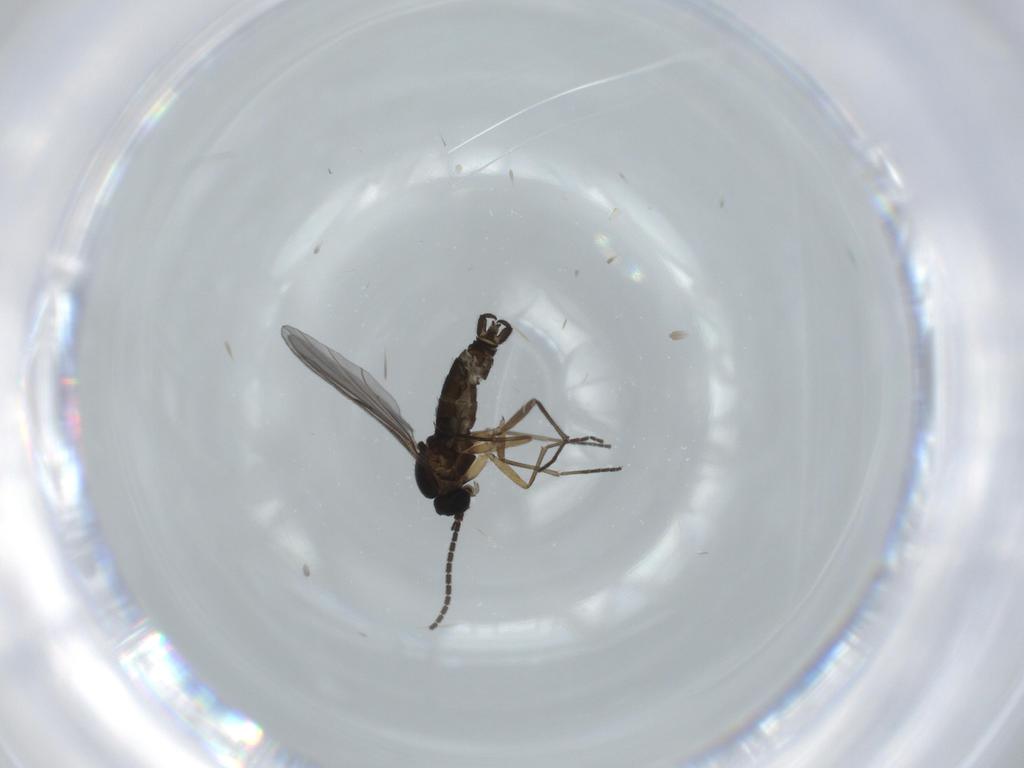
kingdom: Animalia
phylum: Arthropoda
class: Insecta
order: Diptera
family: Sciaridae
